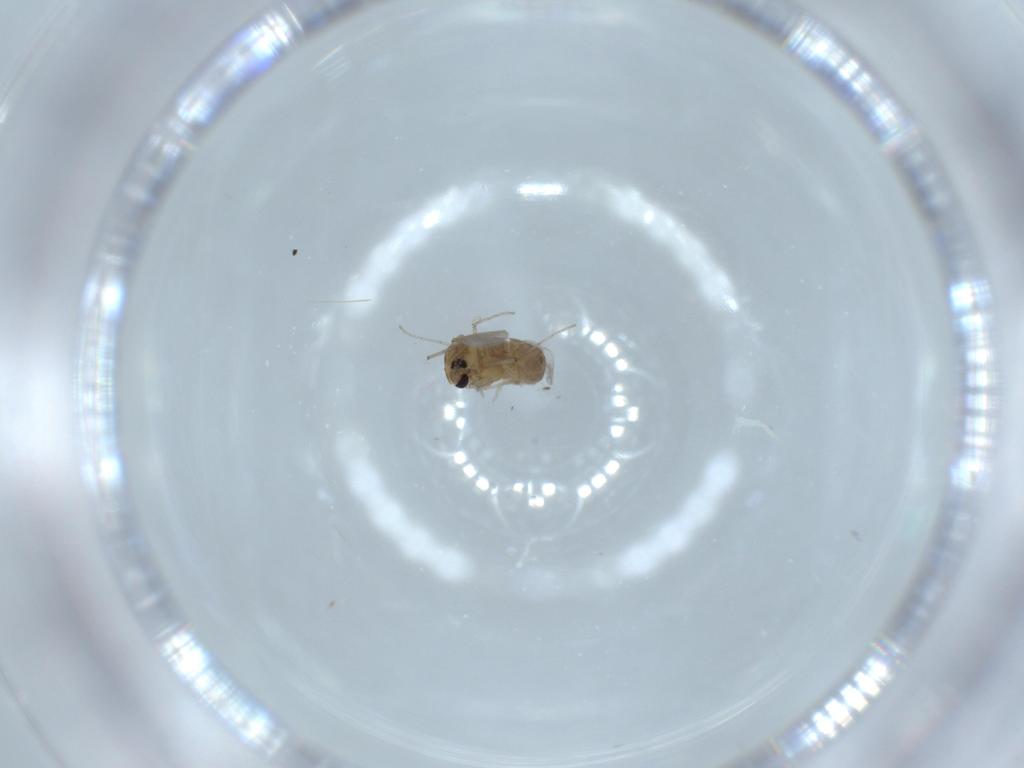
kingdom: Animalia
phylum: Arthropoda
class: Insecta
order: Diptera
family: Chironomidae
